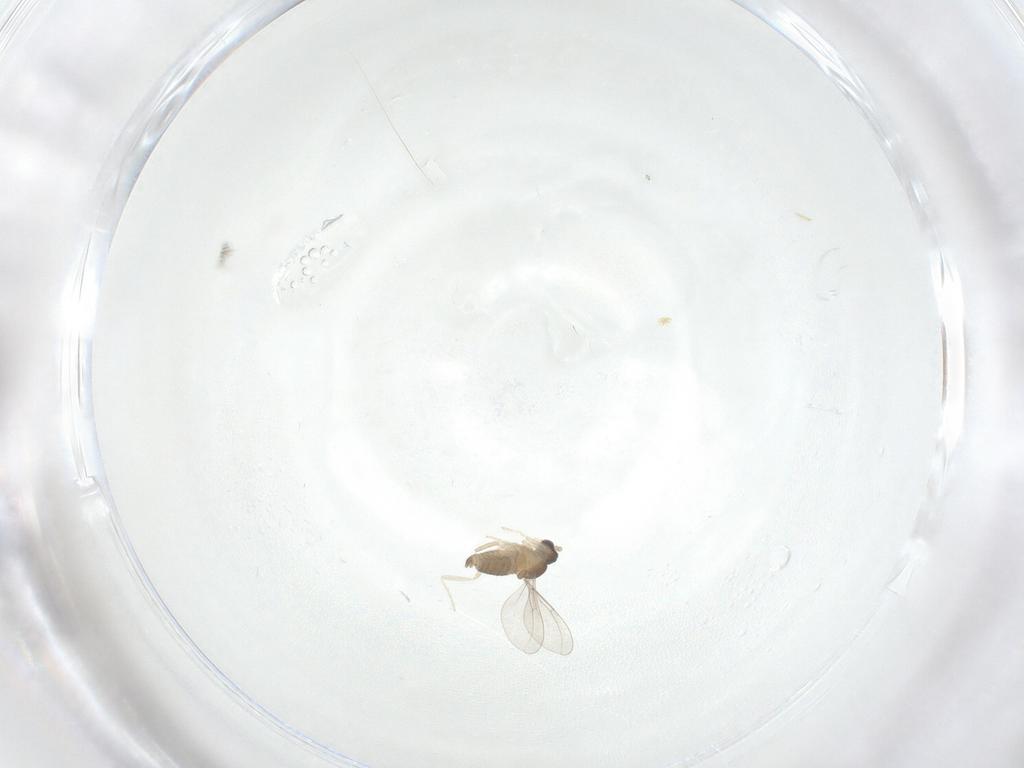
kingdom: Animalia
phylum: Arthropoda
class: Insecta
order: Diptera
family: Cecidomyiidae
